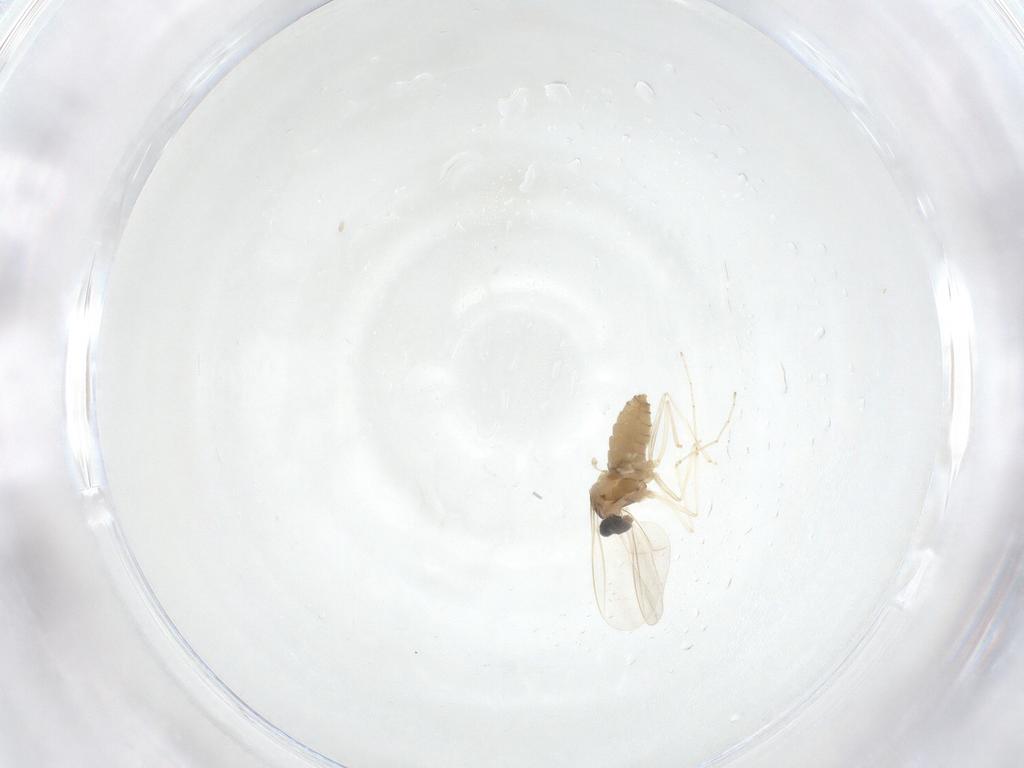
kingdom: Animalia
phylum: Arthropoda
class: Insecta
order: Diptera
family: Psychodidae
